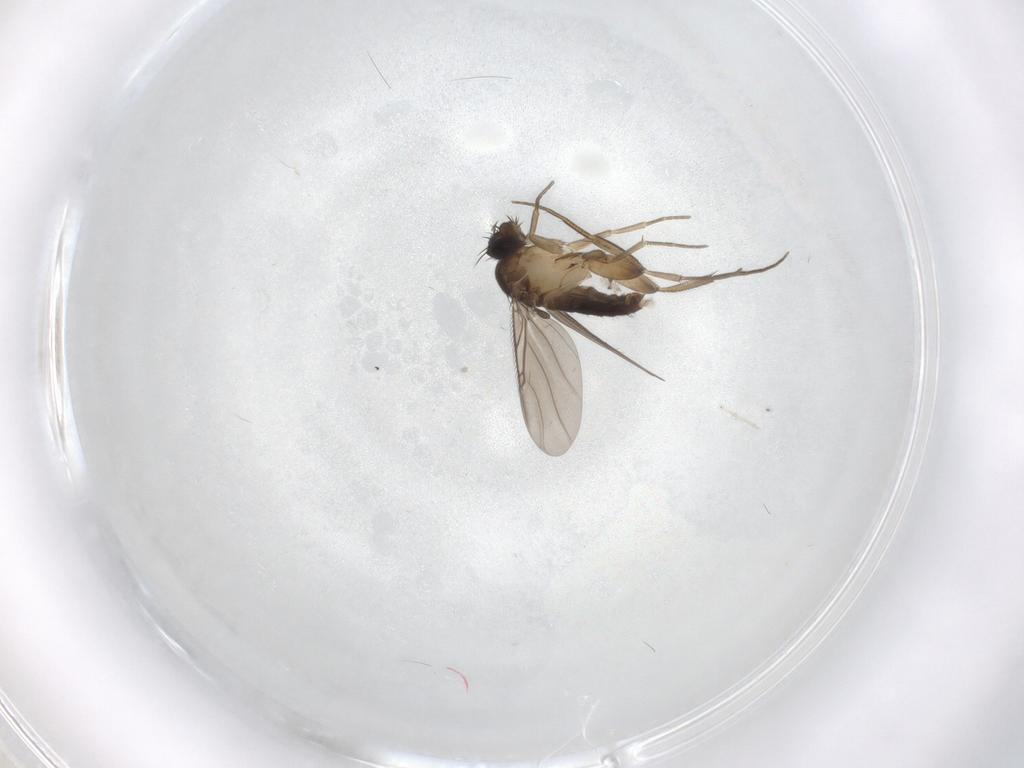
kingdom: Animalia
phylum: Arthropoda
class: Insecta
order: Diptera
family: Phoridae
